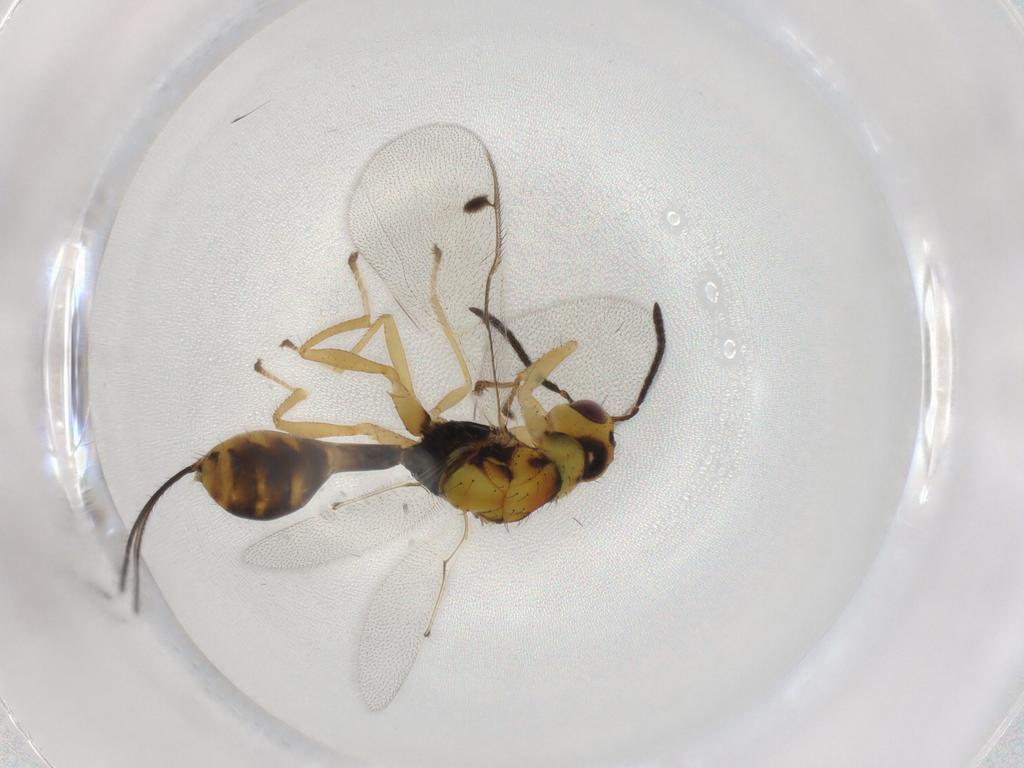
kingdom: Animalia
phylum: Arthropoda
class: Insecta
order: Hymenoptera
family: Megastigmidae
